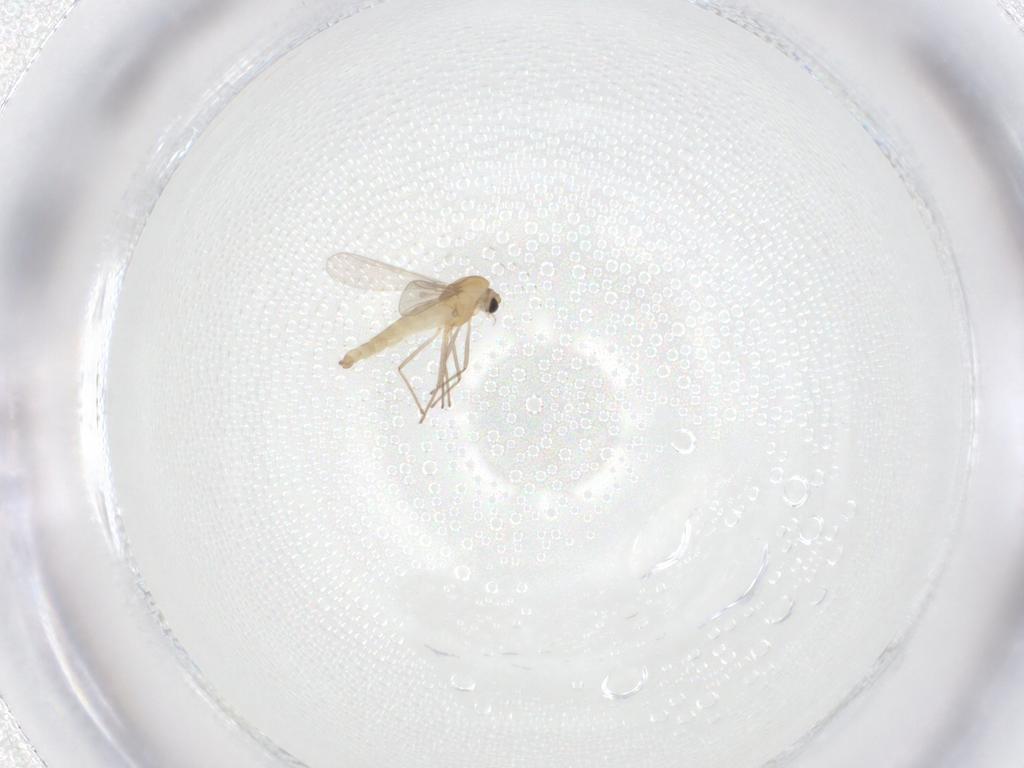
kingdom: Animalia
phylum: Arthropoda
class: Insecta
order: Diptera
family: Chironomidae
